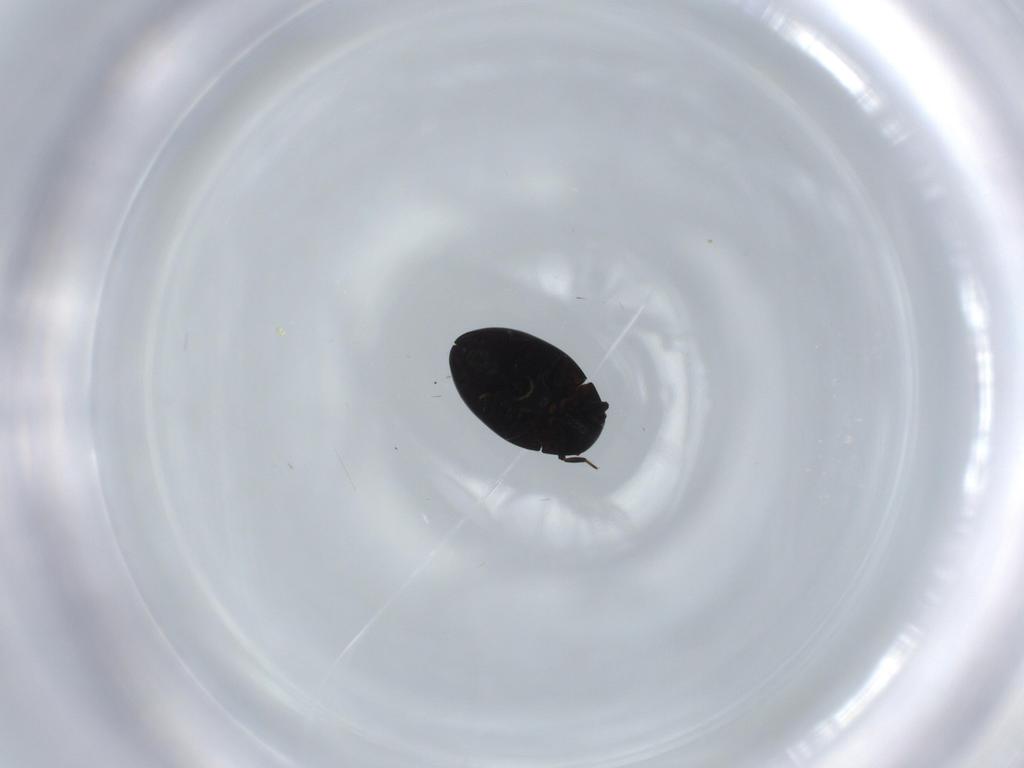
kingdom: Animalia
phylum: Arthropoda
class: Insecta
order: Coleoptera
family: Limnichidae
